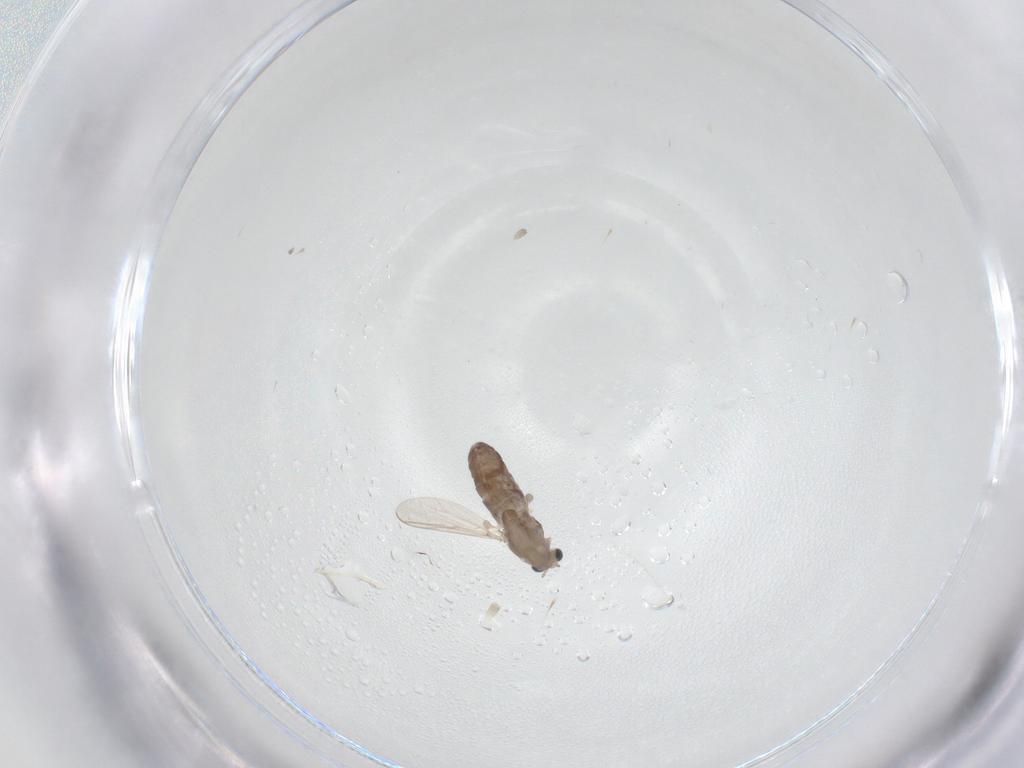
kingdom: Animalia
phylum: Arthropoda
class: Insecta
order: Diptera
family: Chironomidae
